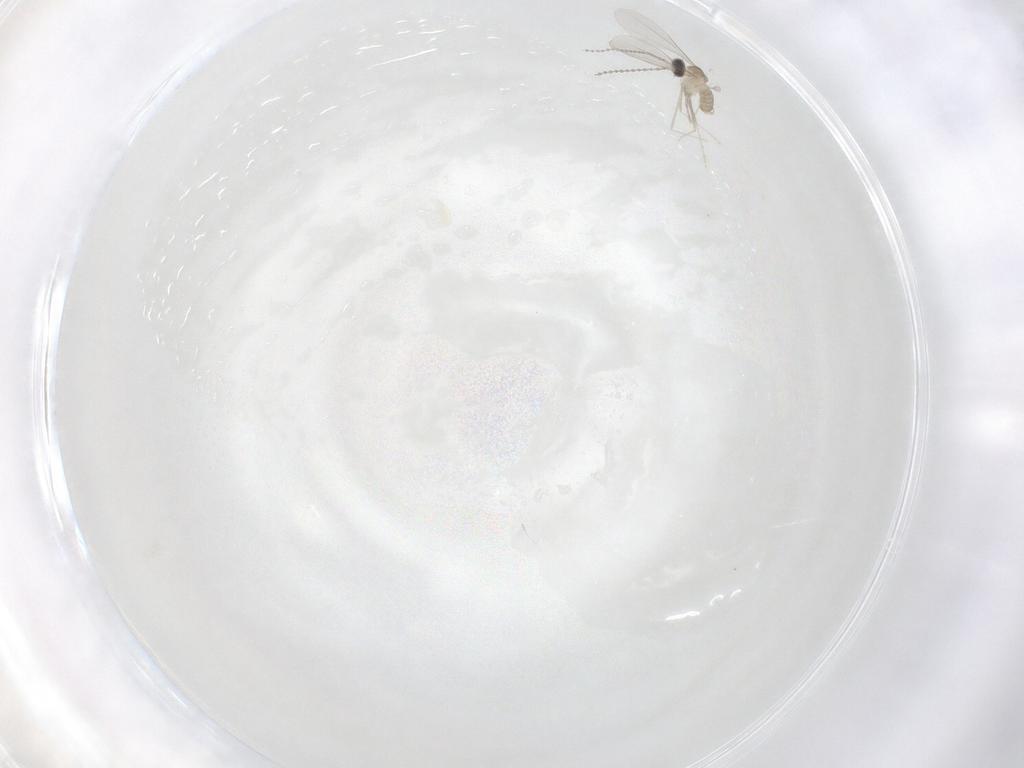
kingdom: Animalia
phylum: Arthropoda
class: Insecta
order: Diptera
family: Cecidomyiidae
